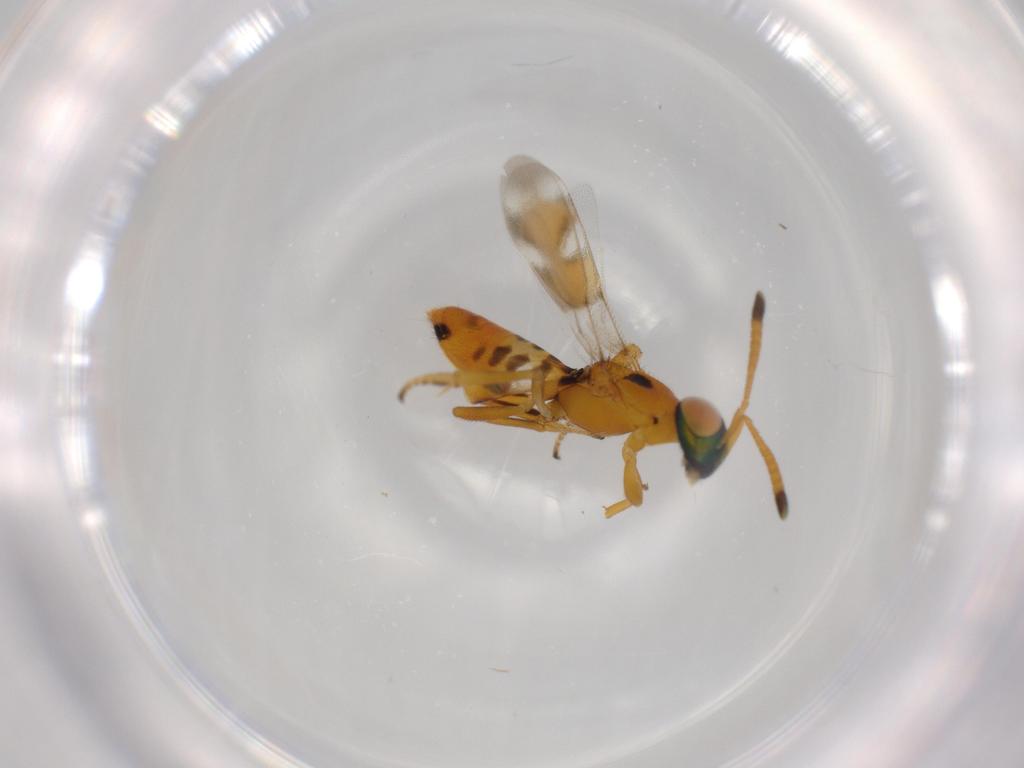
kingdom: Animalia
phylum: Arthropoda
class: Insecta
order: Hymenoptera
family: Eupelmidae
